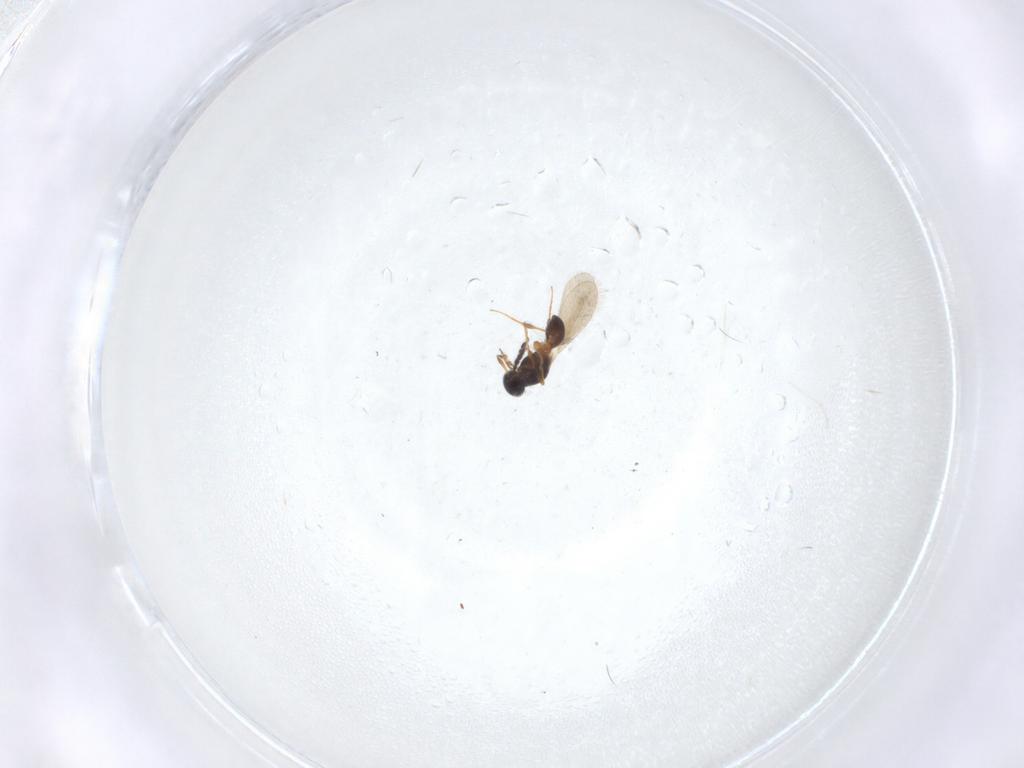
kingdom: Animalia
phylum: Arthropoda
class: Insecta
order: Hymenoptera
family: Platygastridae
